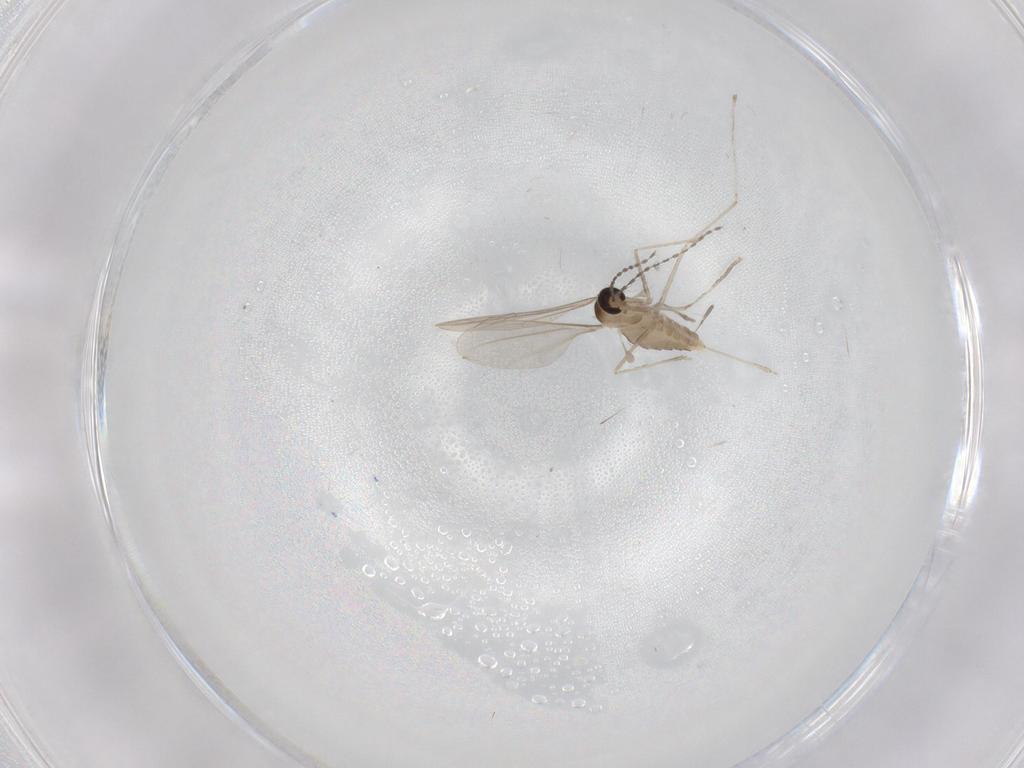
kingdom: Animalia
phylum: Arthropoda
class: Insecta
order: Diptera
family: Cecidomyiidae
